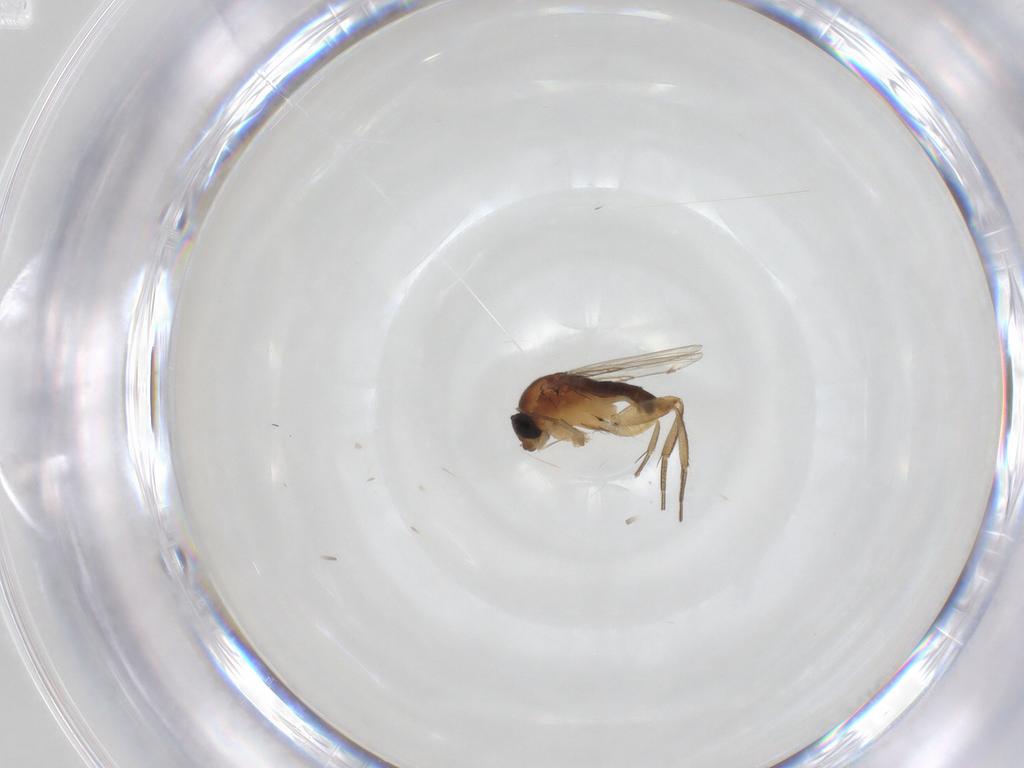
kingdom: Animalia
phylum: Arthropoda
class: Insecta
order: Diptera
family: Phoridae
